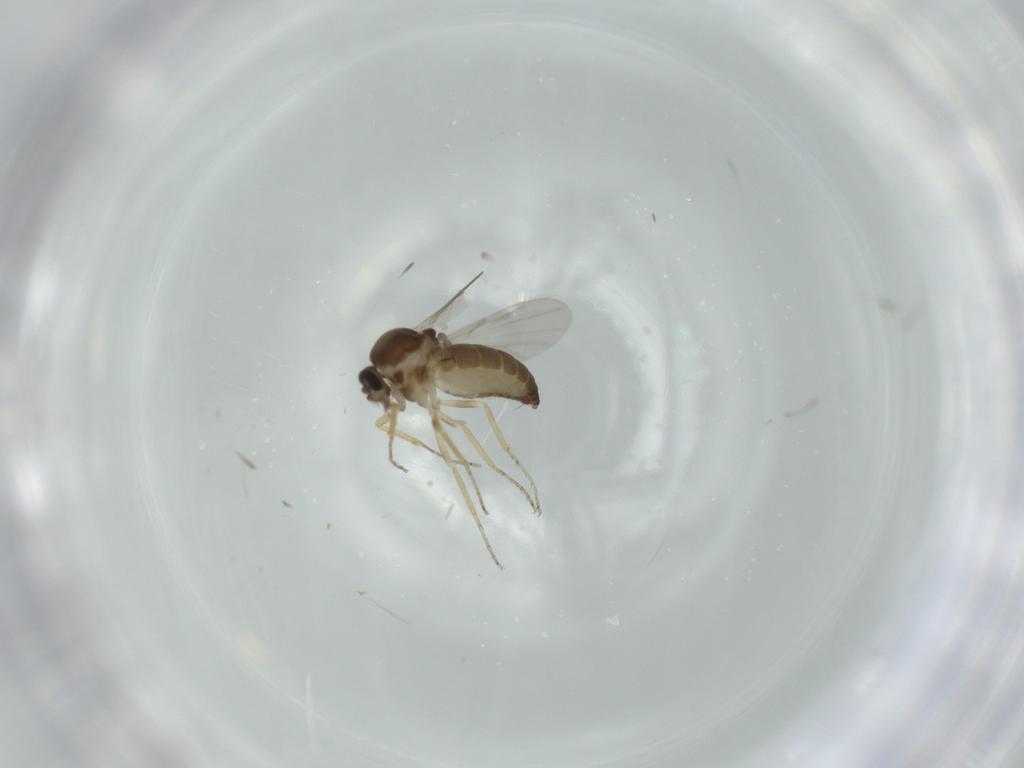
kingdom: Animalia
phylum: Arthropoda
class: Insecta
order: Diptera
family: Ceratopogonidae
